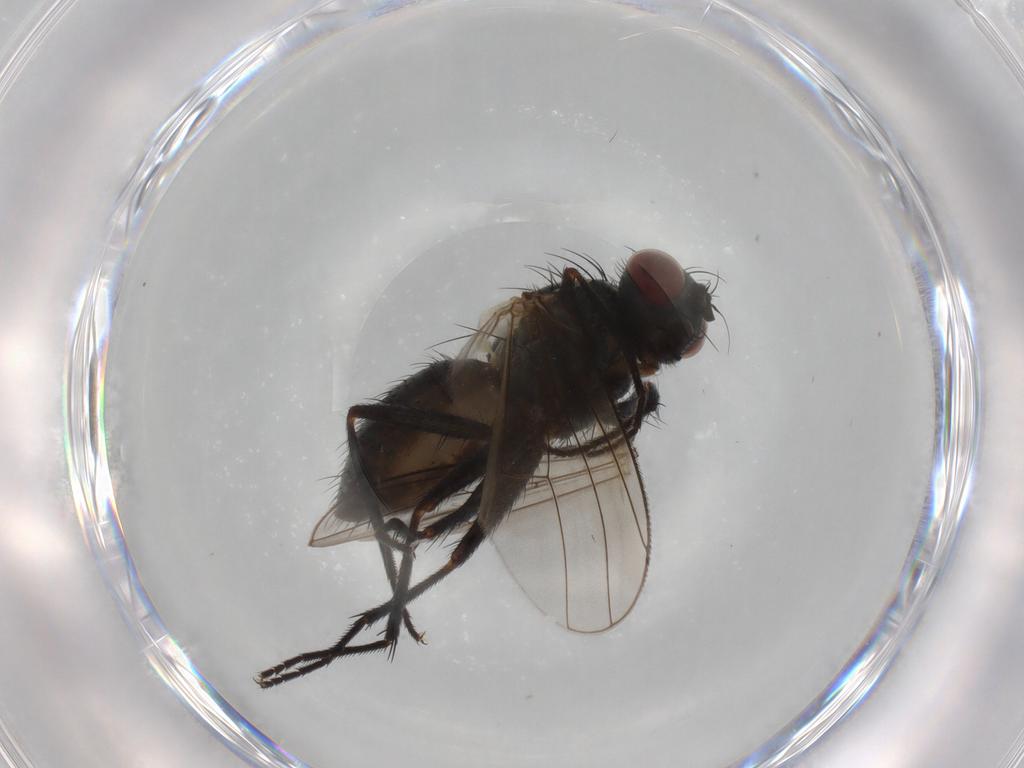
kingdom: Animalia
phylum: Arthropoda
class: Insecta
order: Diptera
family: Muscidae
